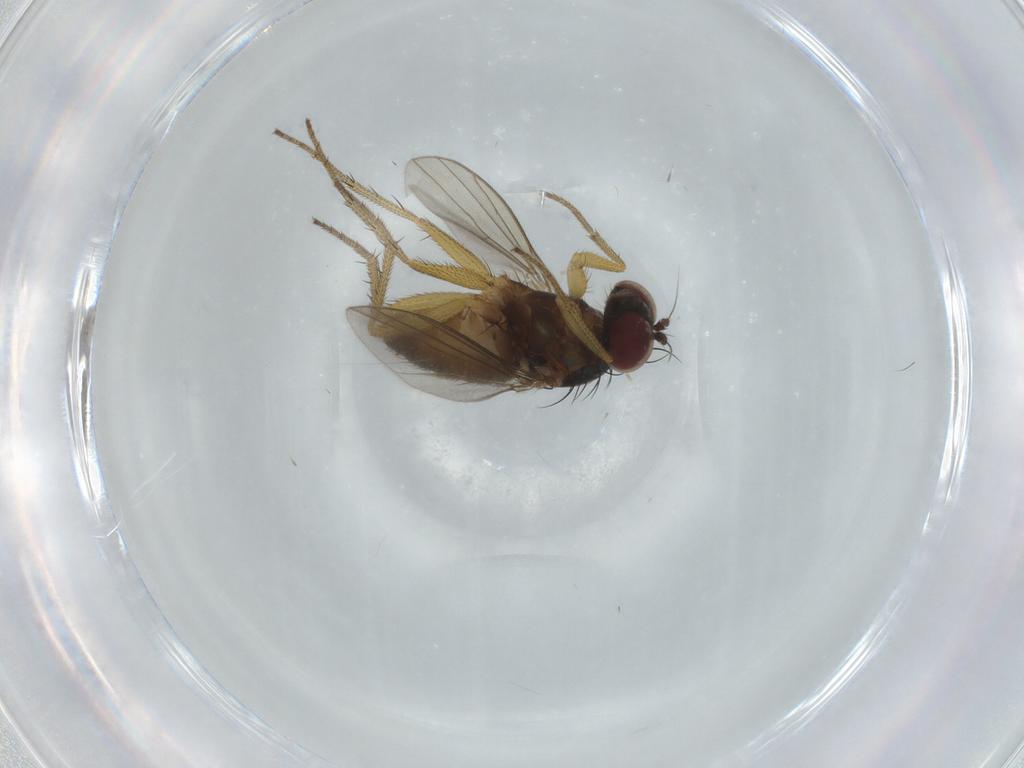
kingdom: Animalia
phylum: Arthropoda
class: Insecta
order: Diptera
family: Dolichopodidae
